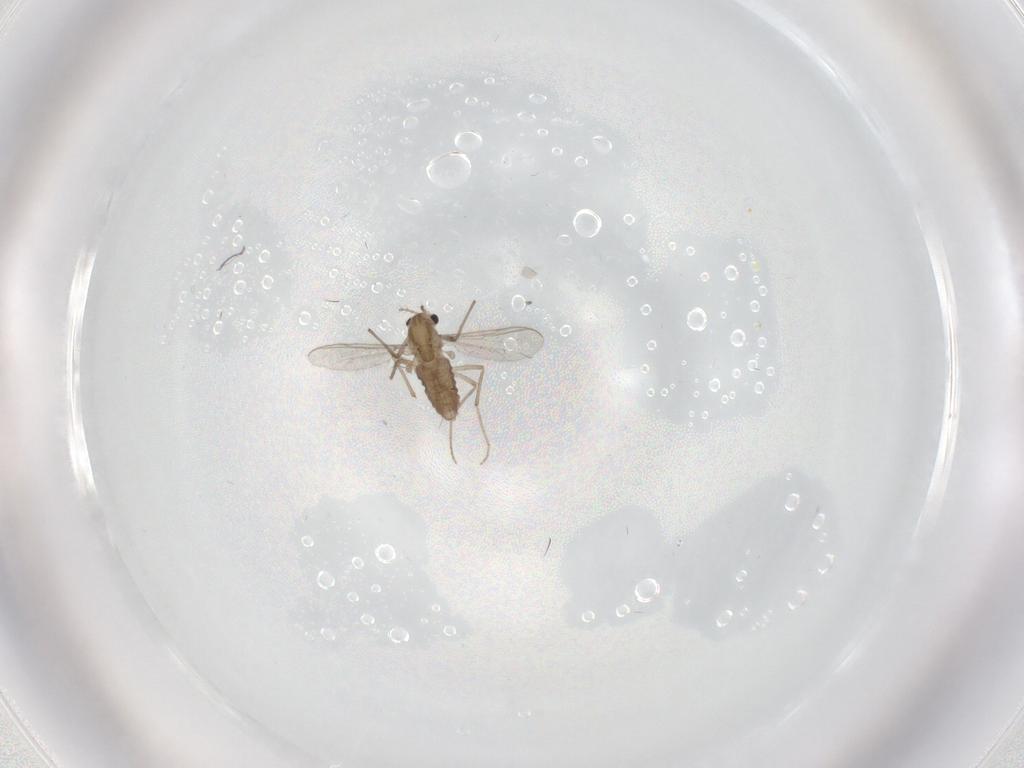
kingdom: Animalia
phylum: Arthropoda
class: Insecta
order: Diptera
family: Chironomidae
